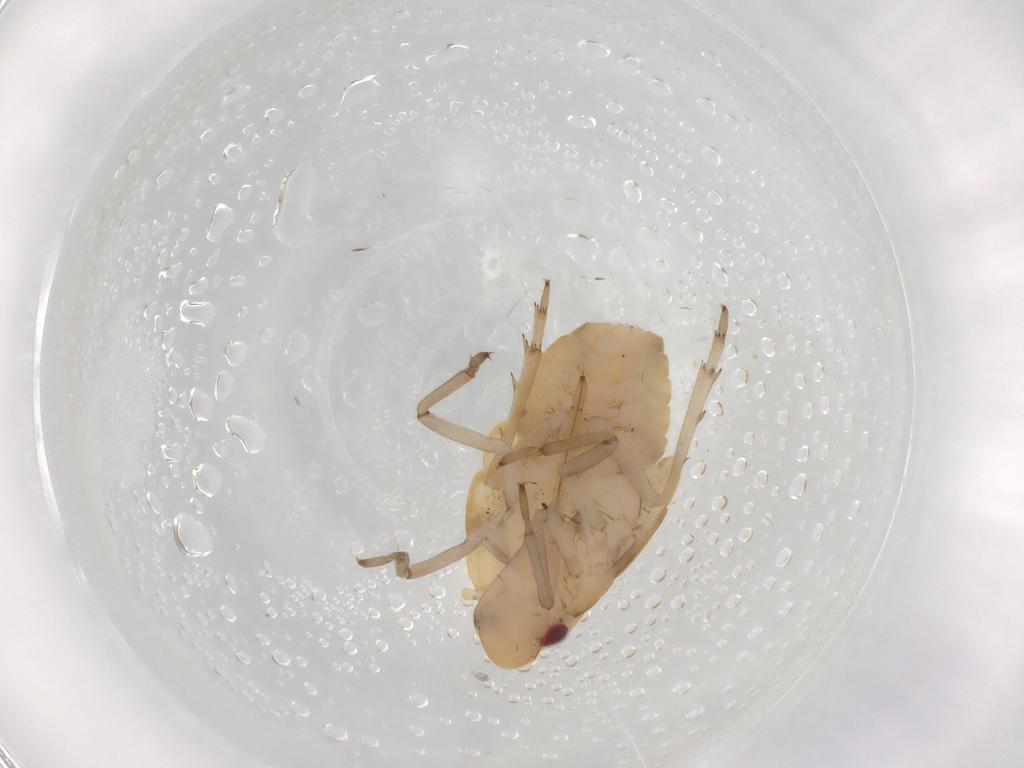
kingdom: Animalia
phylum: Arthropoda
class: Insecta
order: Hemiptera
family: Flatidae
